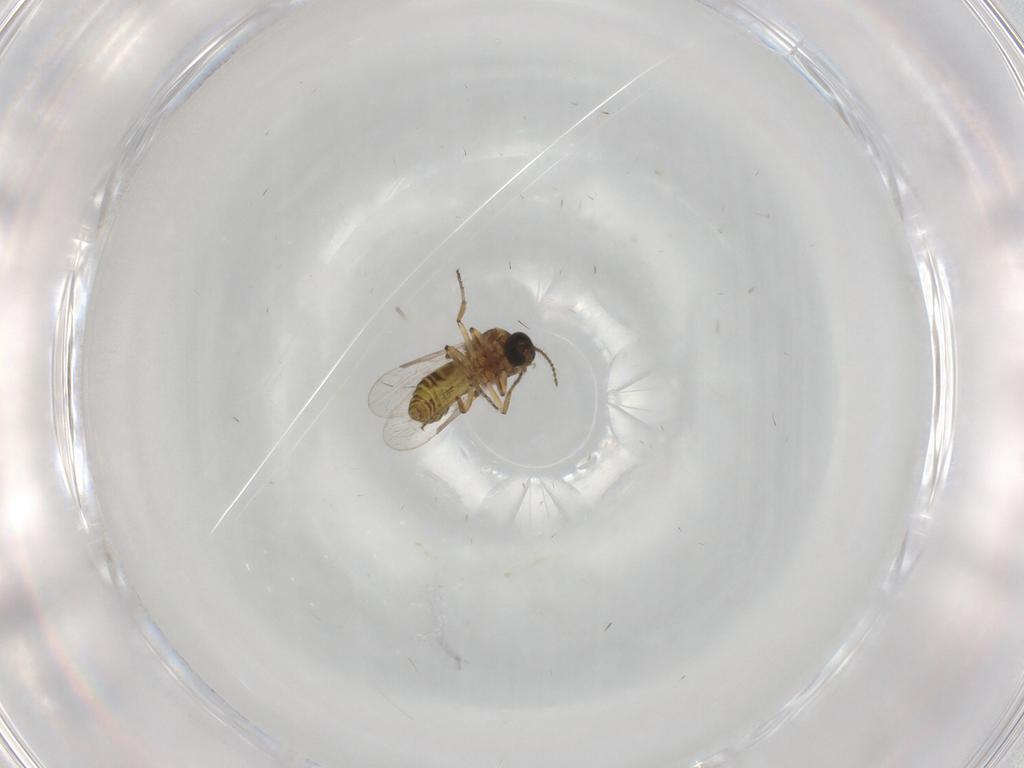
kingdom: Animalia
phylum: Arthropoda
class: Insecta
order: Diptera
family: Ceratopogonidae
